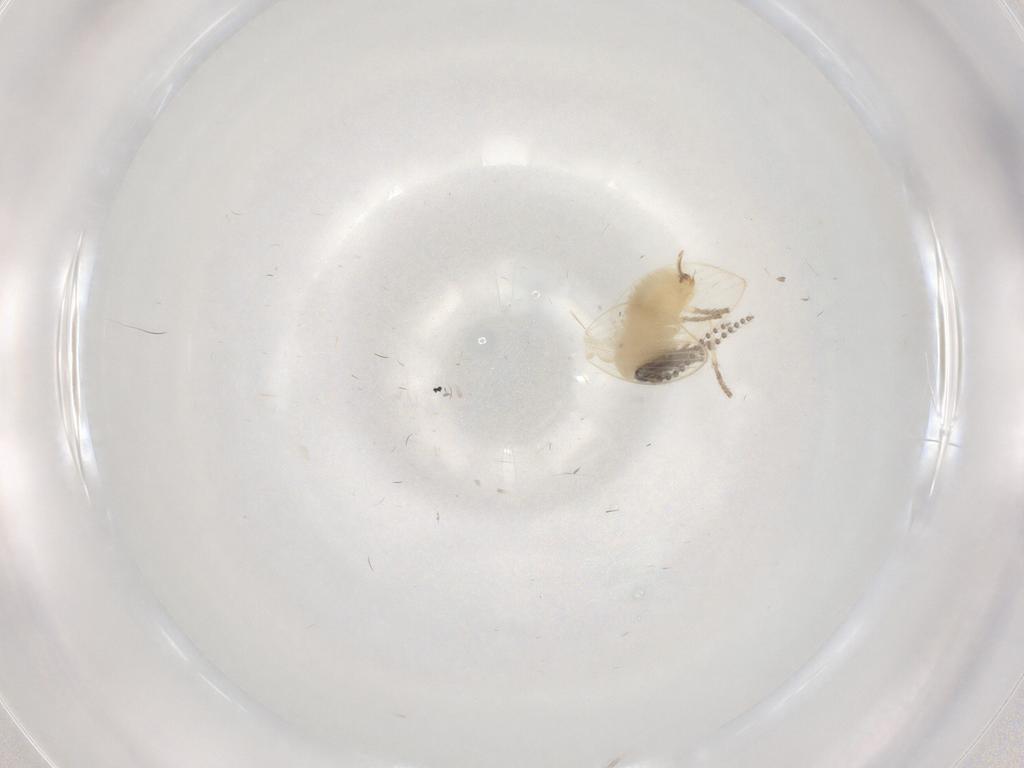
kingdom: Animalia
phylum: Arthropoda
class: Insecta
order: Diptera
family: Psychodidae
